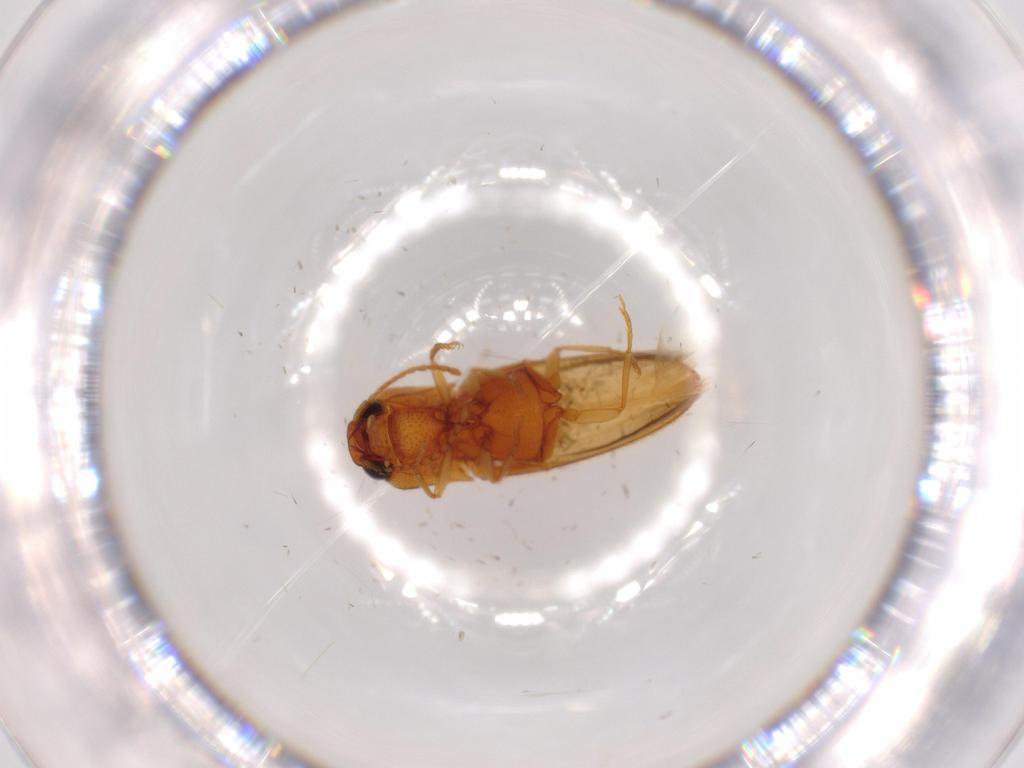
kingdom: Animalia
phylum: Arthropoda
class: Insecta
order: Coleoptera
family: Elateridae
